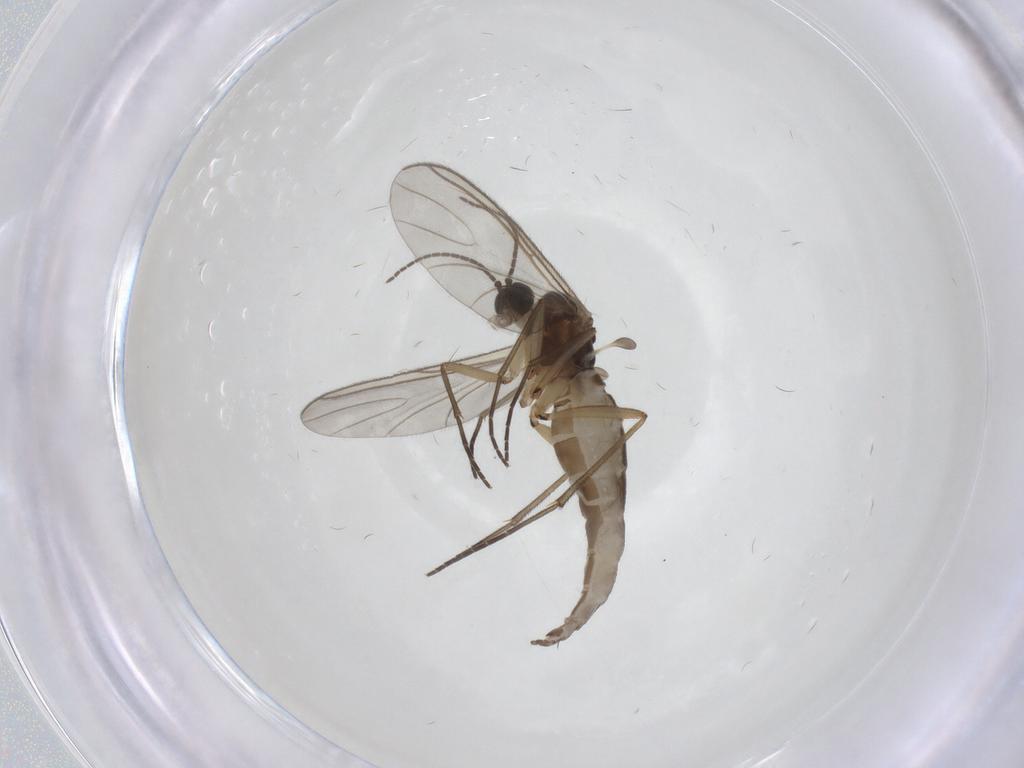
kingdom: Animalia
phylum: Arthropoda
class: Insecta
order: Diptera
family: Sciaridae
